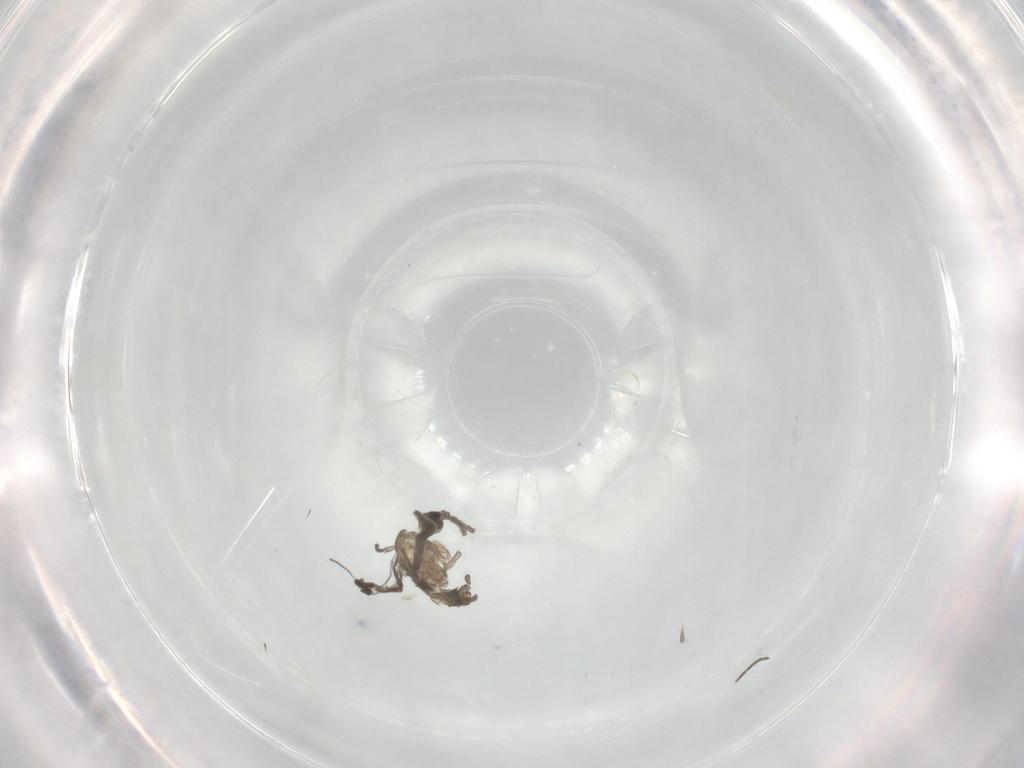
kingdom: Animalia
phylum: Arthropoda
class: Insecta
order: Diptera
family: Sciaridae
